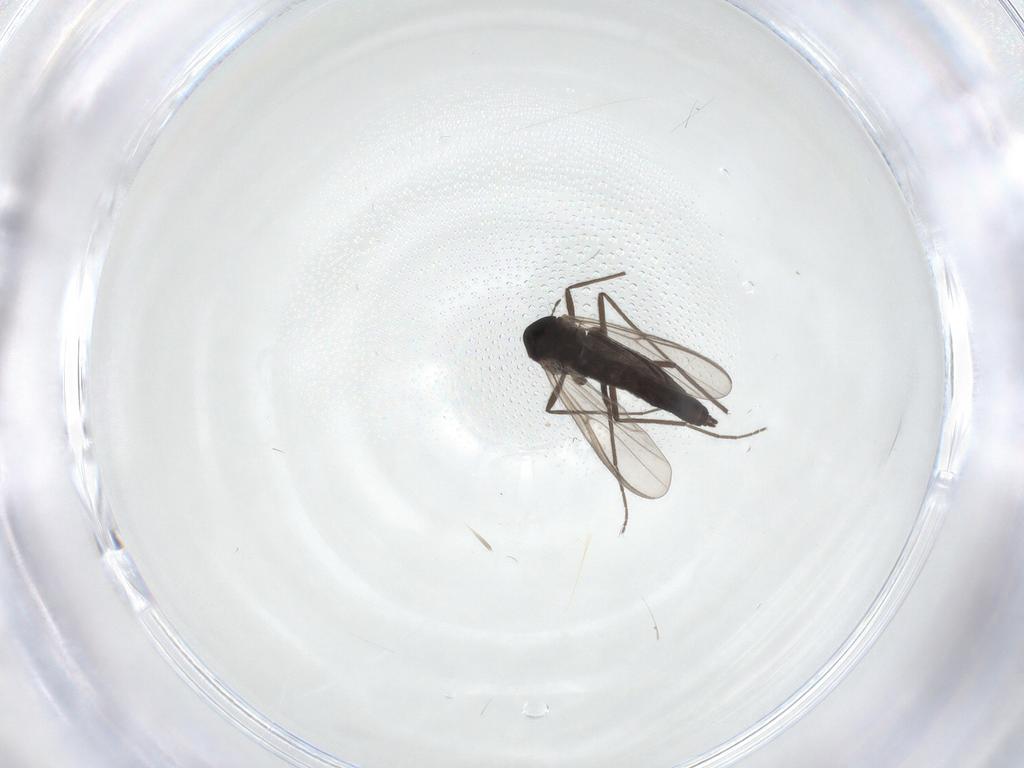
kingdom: Animalia
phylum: Arthropoda
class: Insecta
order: Diptera
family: Chironomidae
